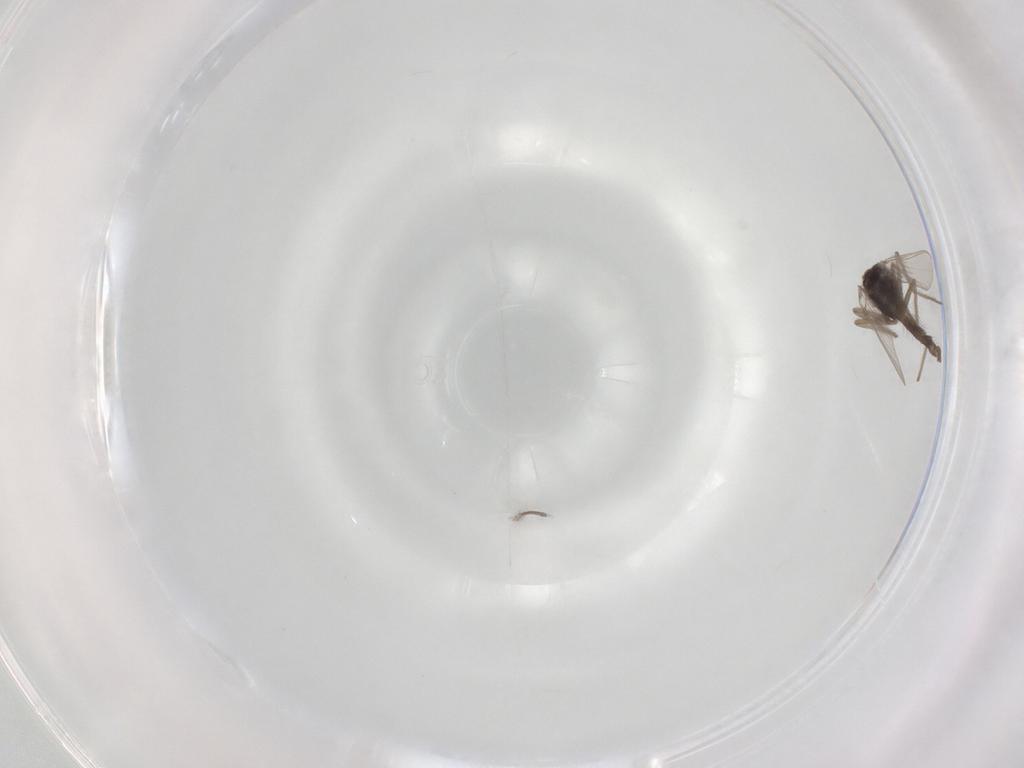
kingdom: Animalia
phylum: Arthropoda
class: Insecta
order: Diptera
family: Chironomidae
